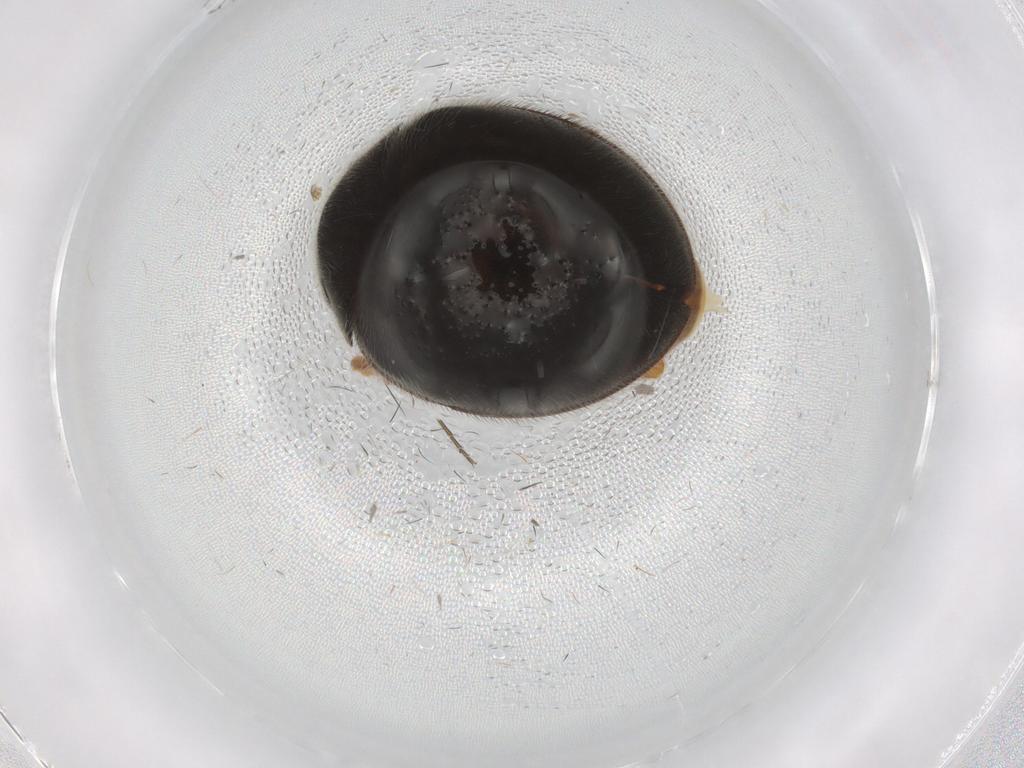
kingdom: Animalia
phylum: Arthropoda
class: Insecta
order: Coleoptera
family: Scirtidae
